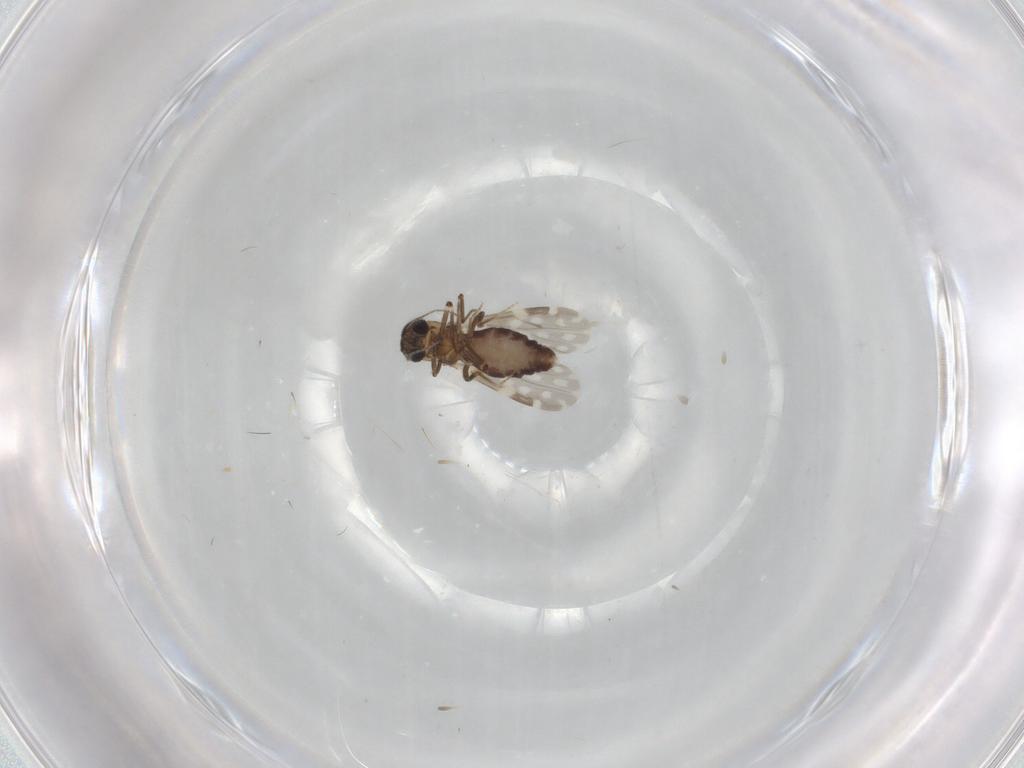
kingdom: Animalia
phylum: Arthropoda
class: Insecta
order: Diptera
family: Ceratopogonidae
